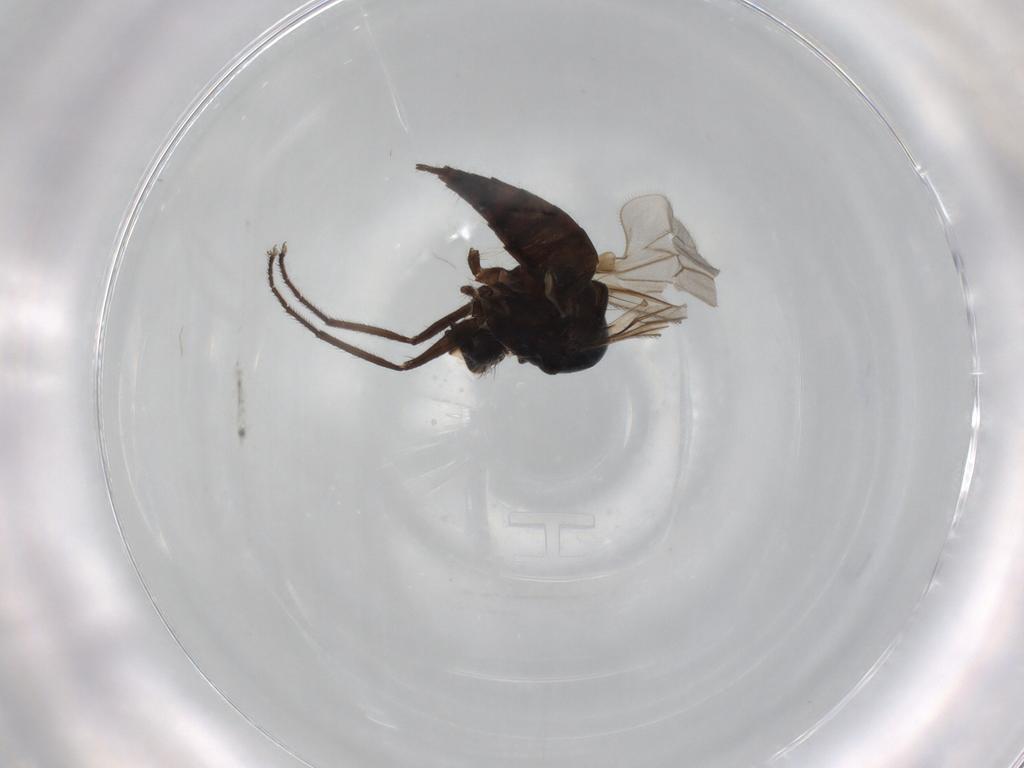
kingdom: Animalia
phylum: Arthropoda
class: Insecta
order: Diptera
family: Hybotidae
